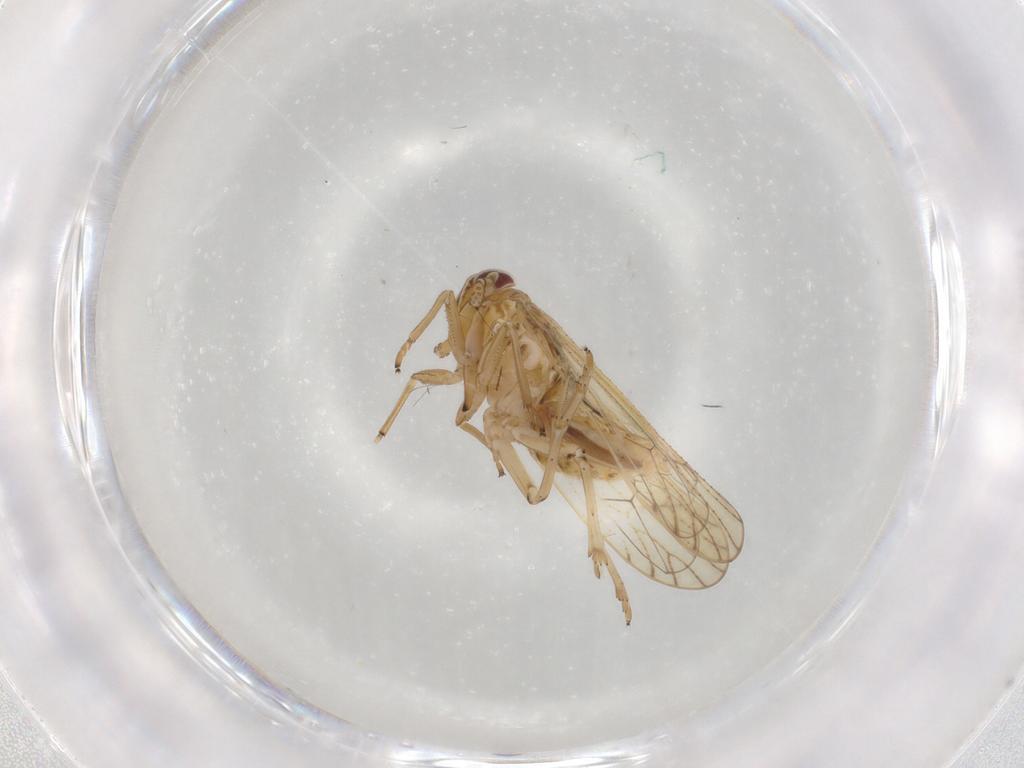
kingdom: Animalia
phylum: Arthropoda
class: Insecta
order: Hemiptera
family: Delphacidae
